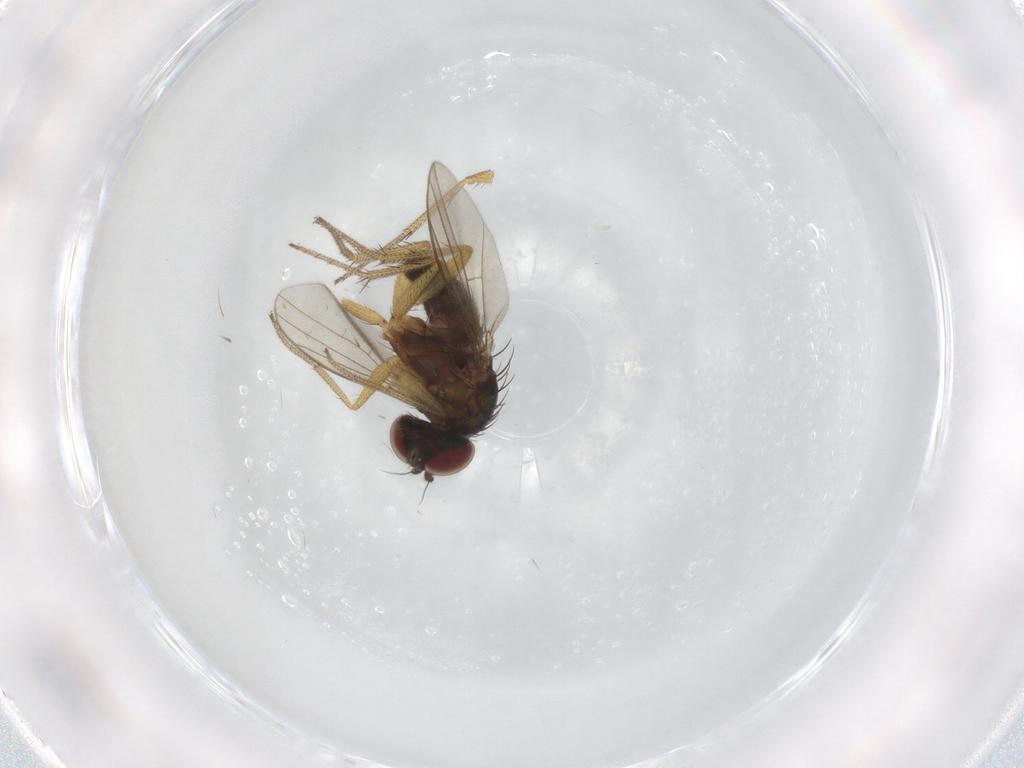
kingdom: Animalia
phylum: Arthropoda
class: Insecta
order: Diptera
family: Dolichopodidae
